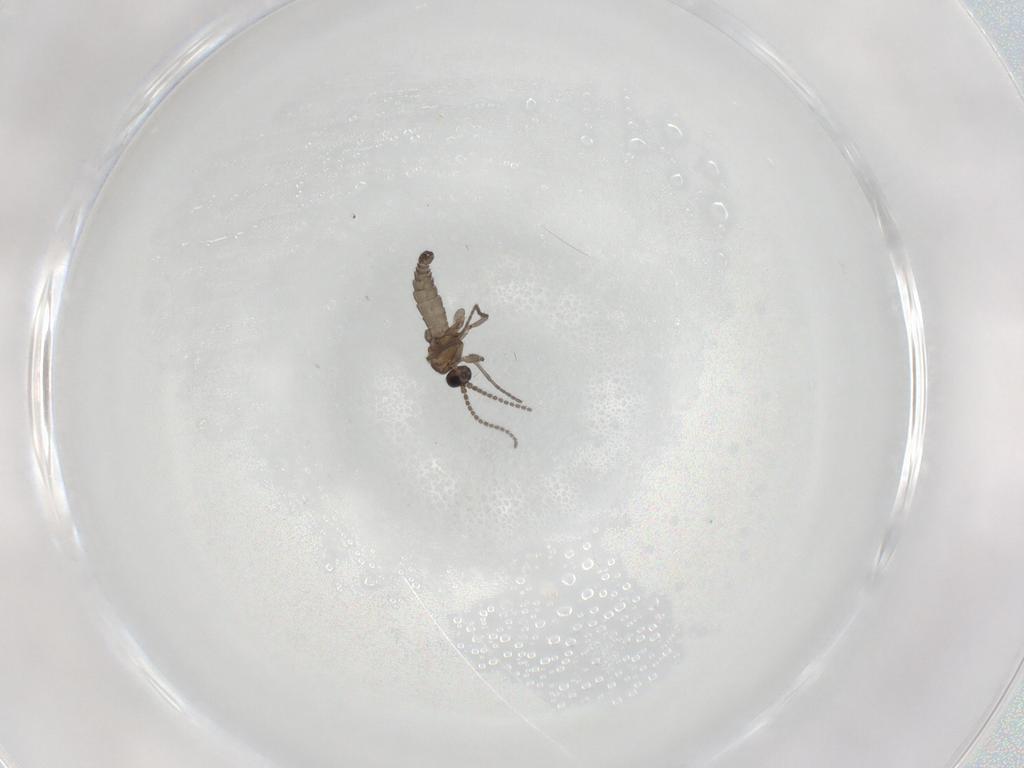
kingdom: Animalia
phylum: Arthropoda
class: Insecta
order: Diptera
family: Sciaridae
